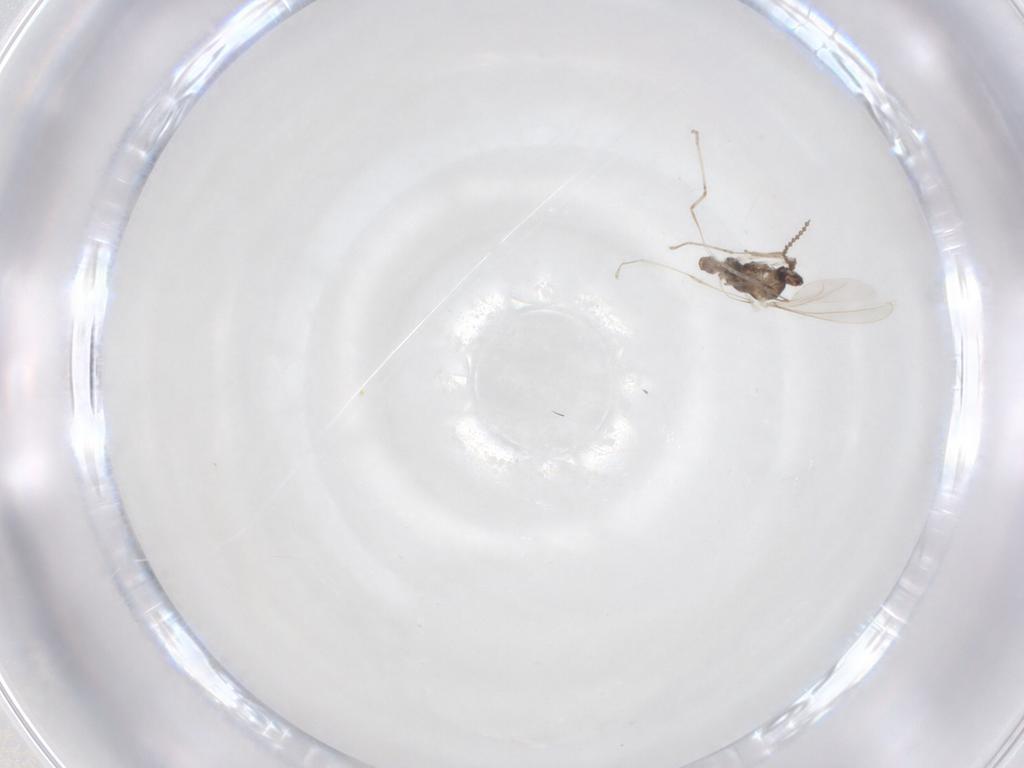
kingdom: Animalia
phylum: Arthropoda
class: Insecta
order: Diptera
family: Cecidomyiidae
